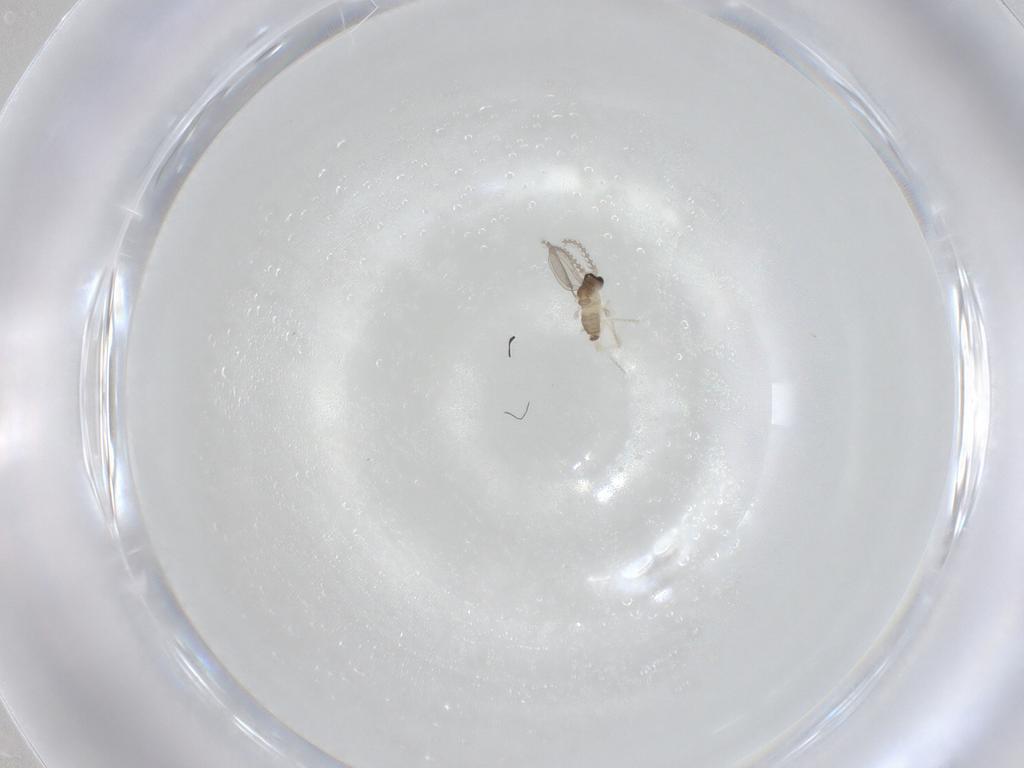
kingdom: Animalia
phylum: Arthropoda
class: Insecta
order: Diptera
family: Cecidomyiidae
